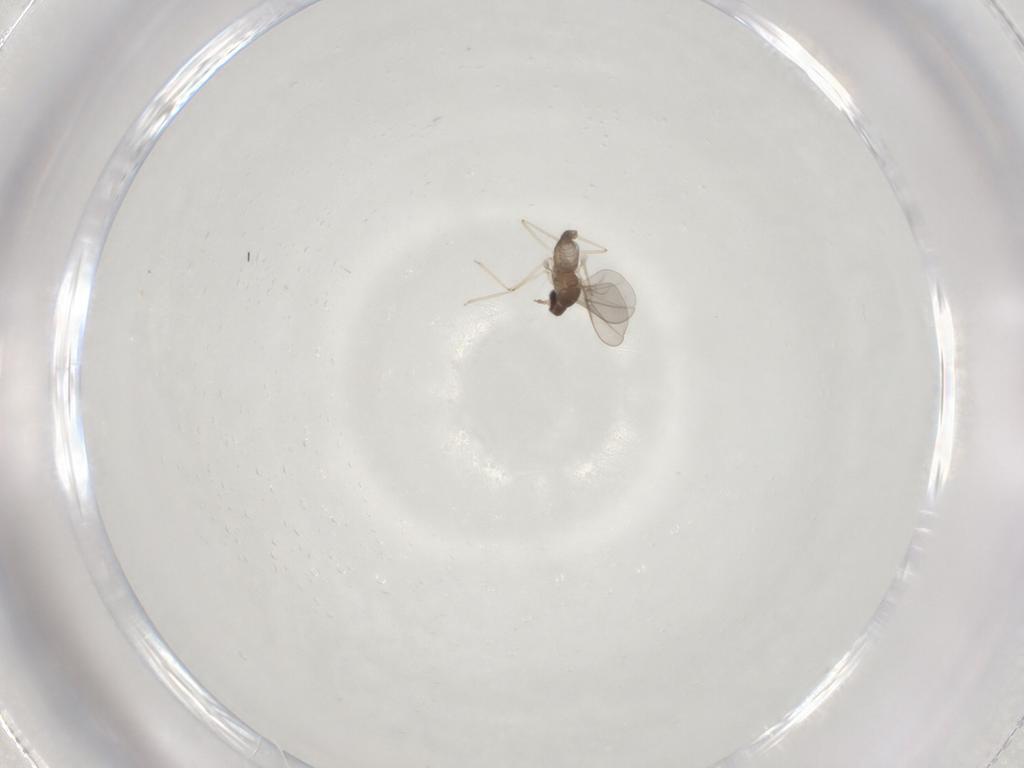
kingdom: Animalia
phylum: Arthropoda
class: Insecta
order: Diptera
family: Cecidomyiidae
